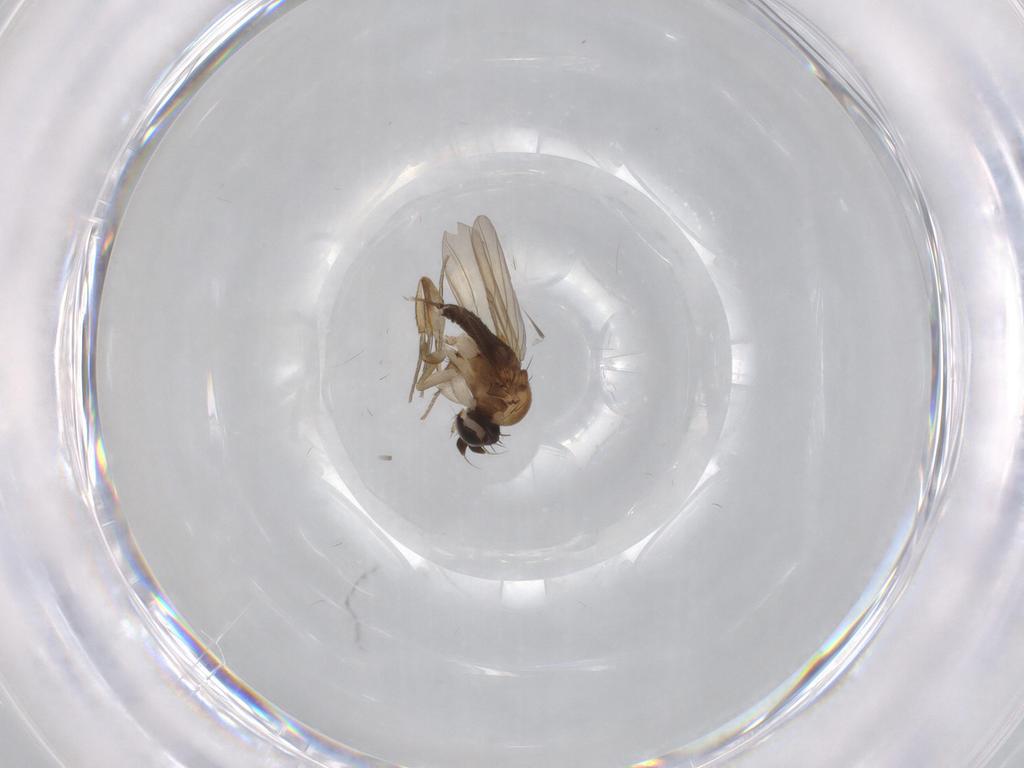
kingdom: Animalia
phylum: Arthropoda
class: Insecta
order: Diptera
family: Phoridae
